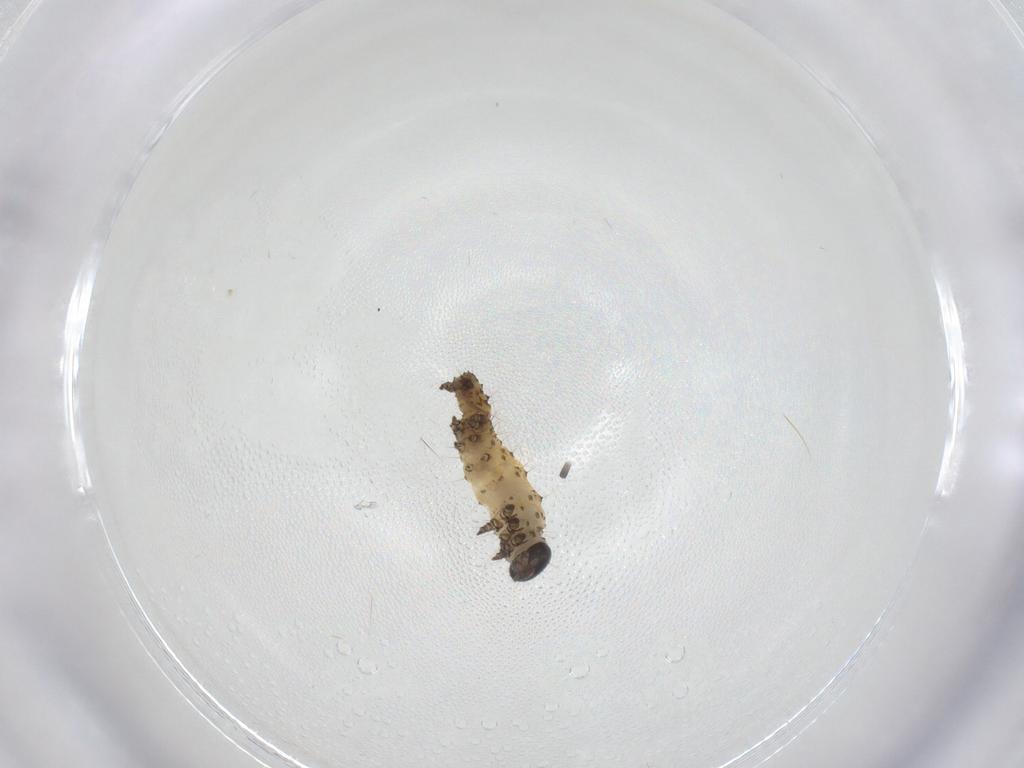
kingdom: Animalia
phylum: Arthropoda
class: Insecta
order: Lepidoptera
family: Noctuidae
